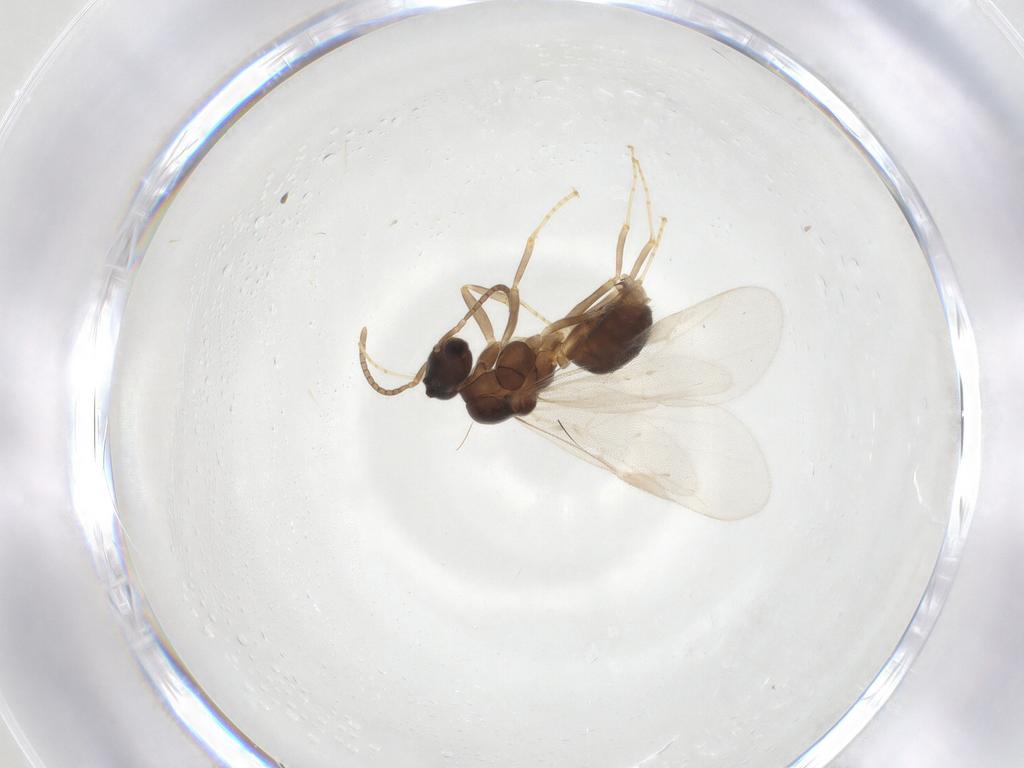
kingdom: Animalia
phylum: Arthropoda
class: Insecta
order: Hymenoptera
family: Formicidae
